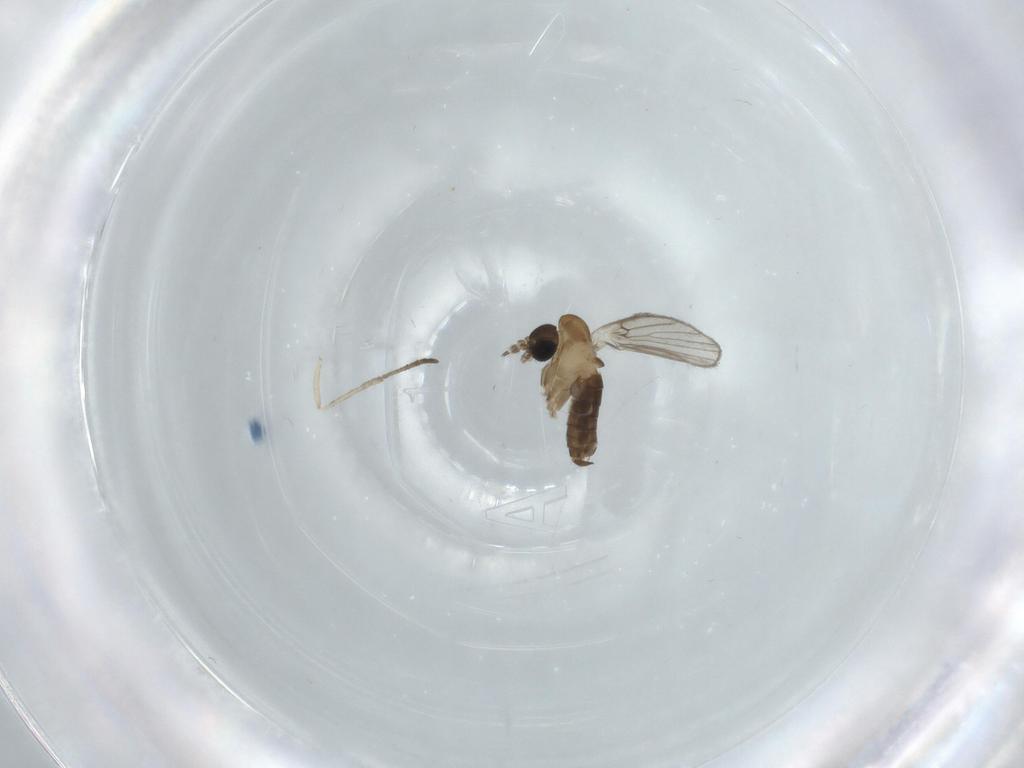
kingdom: Animalia
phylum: Arthropoda
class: Insecta
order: Diptera
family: Psychodidae
